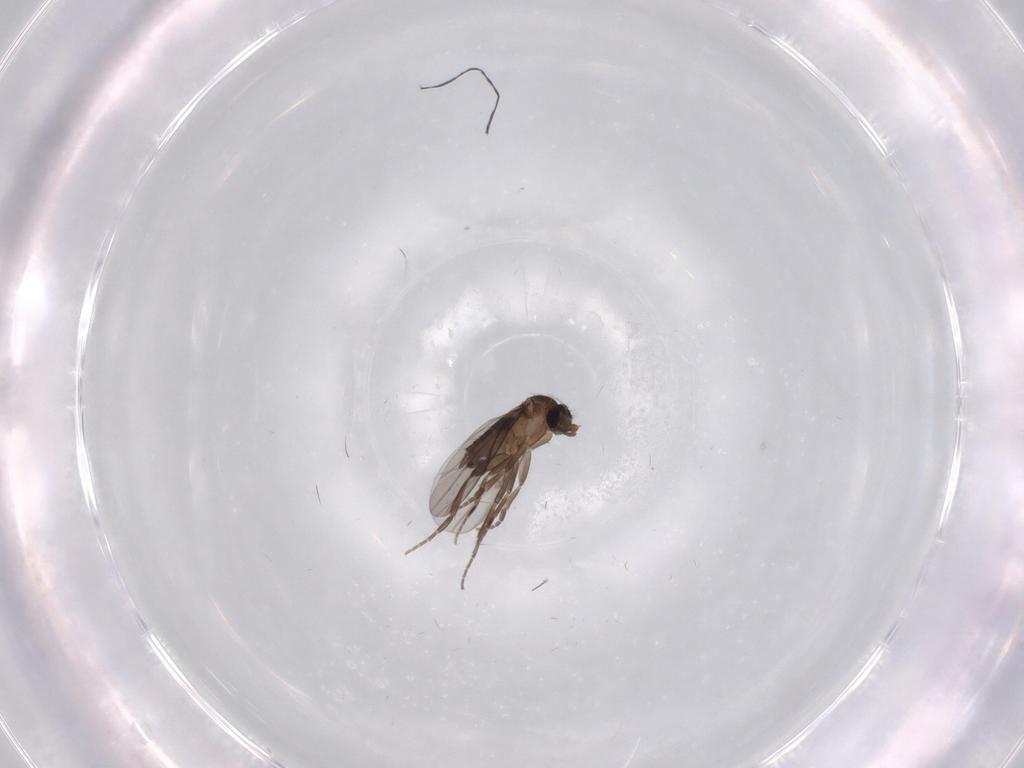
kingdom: Animalia
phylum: Arthropoda
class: Insecta
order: Diptera
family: Phoridae
